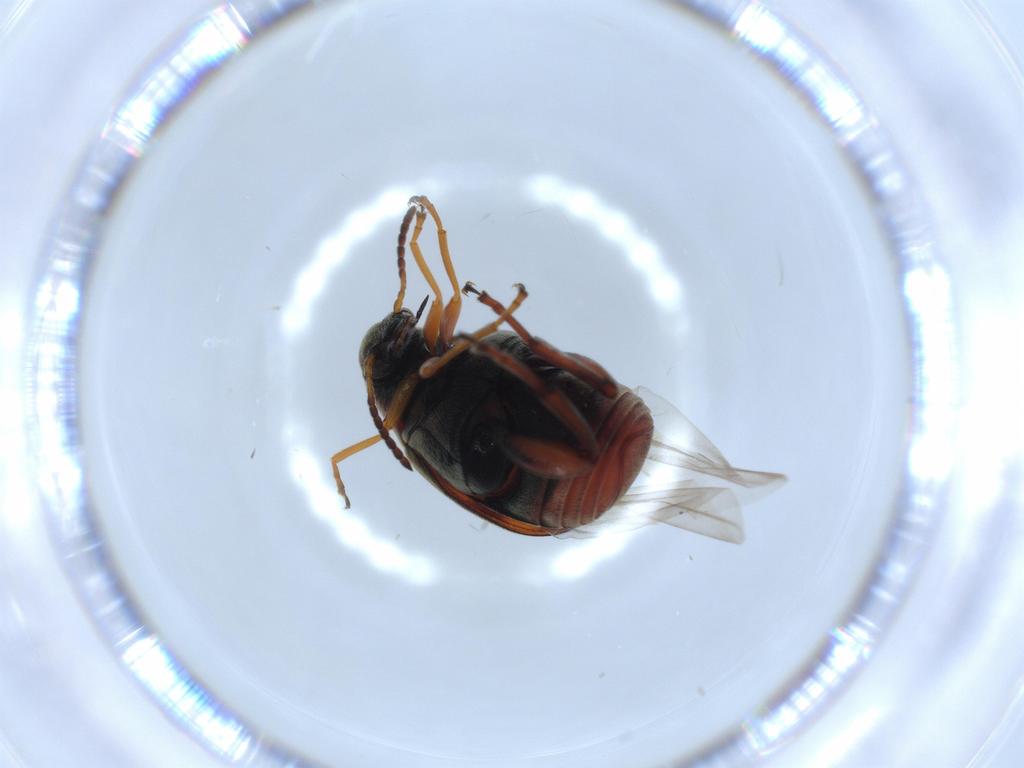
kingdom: Animalia
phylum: Arthropoda
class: Insecta
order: Coleoptera
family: Chrysomelidae
